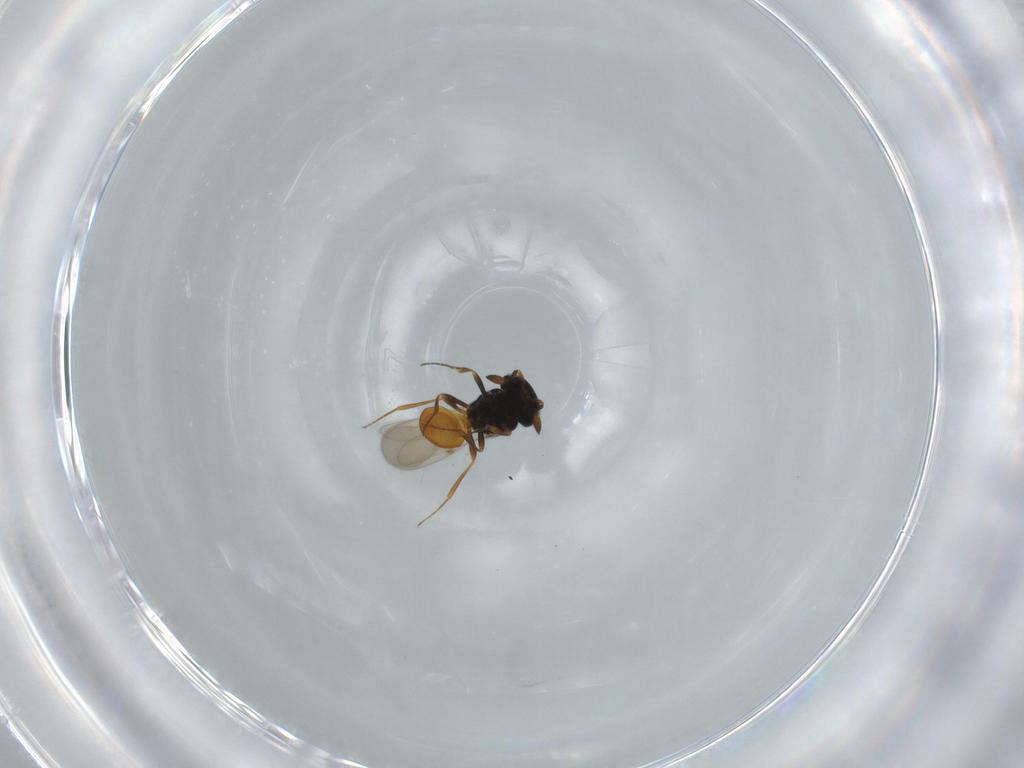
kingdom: Animalia
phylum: Arthropoda
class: Insecta
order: Hymenoptera
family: Scelionidae
